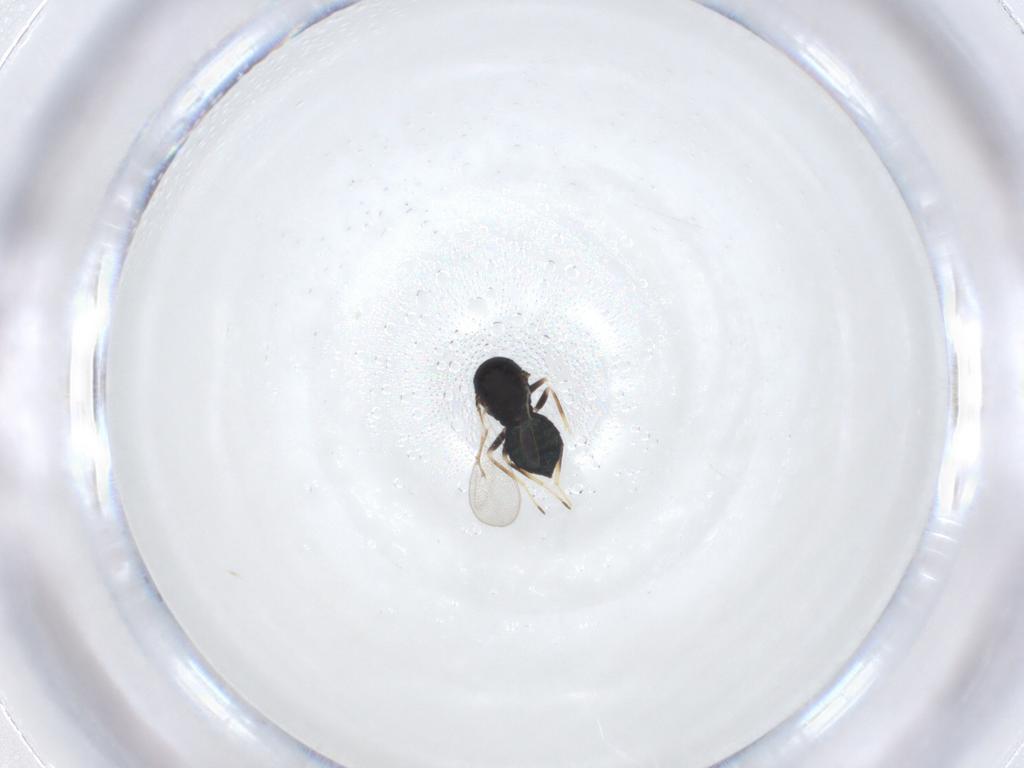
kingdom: Animalia
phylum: Arthropoda
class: Insecta
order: Hymenoptera
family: Eulophidae
